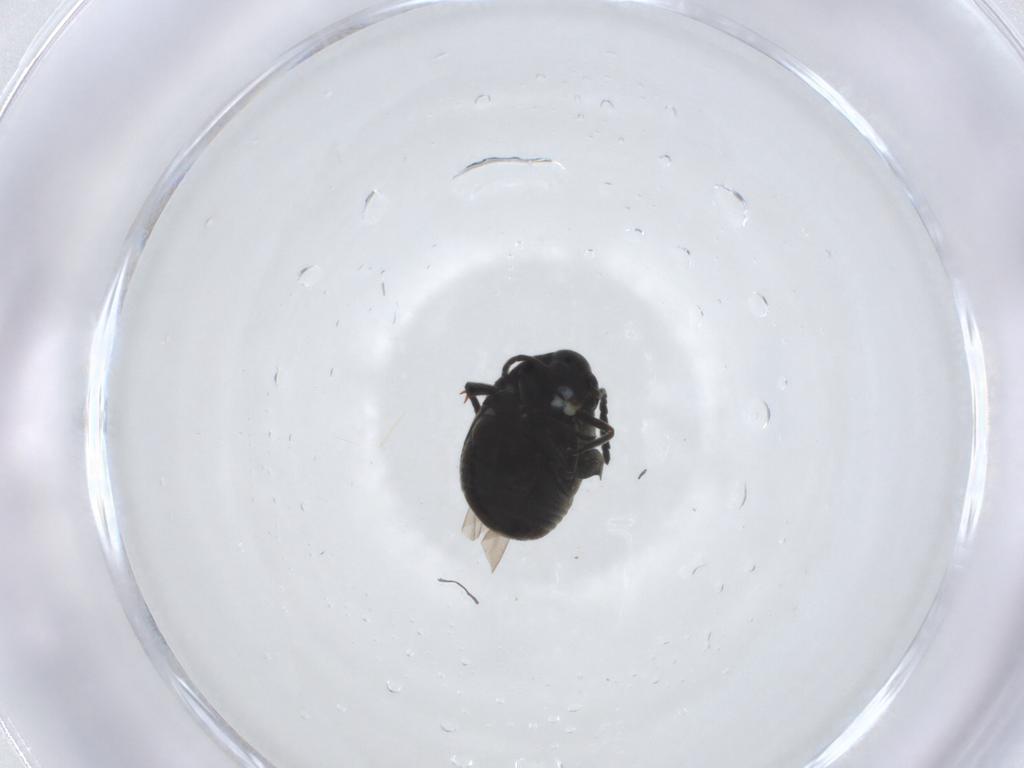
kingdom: Animalia
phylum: Arthropoda
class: Insecta
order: Coleoptera
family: Chrysomelidae
